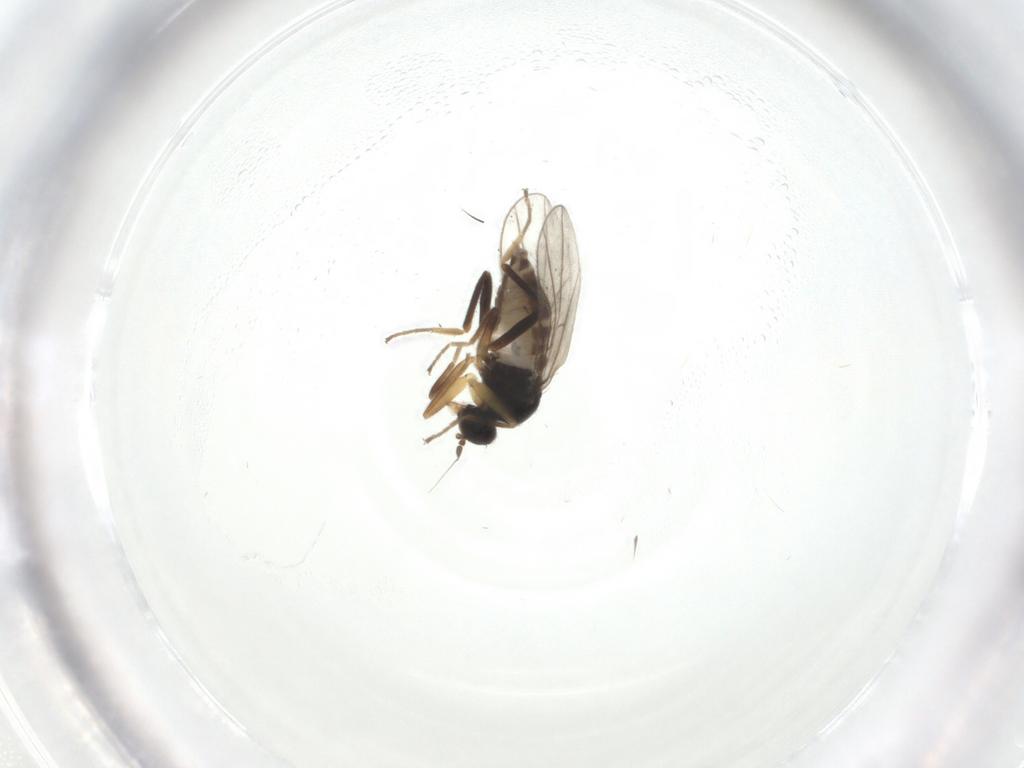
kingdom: Animalia
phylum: Arthropoda
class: Insecta
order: Diptera
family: Hybotidae
